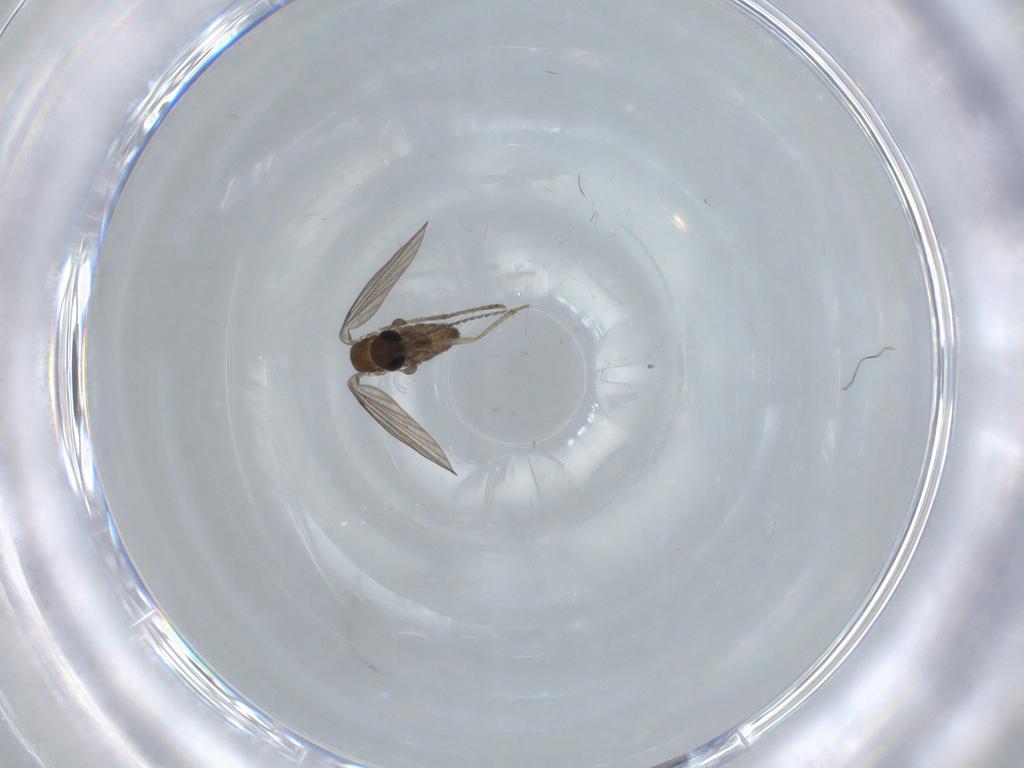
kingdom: Animalia
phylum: Arthropoda
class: Insecta
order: Diptera
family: Psychodidae
